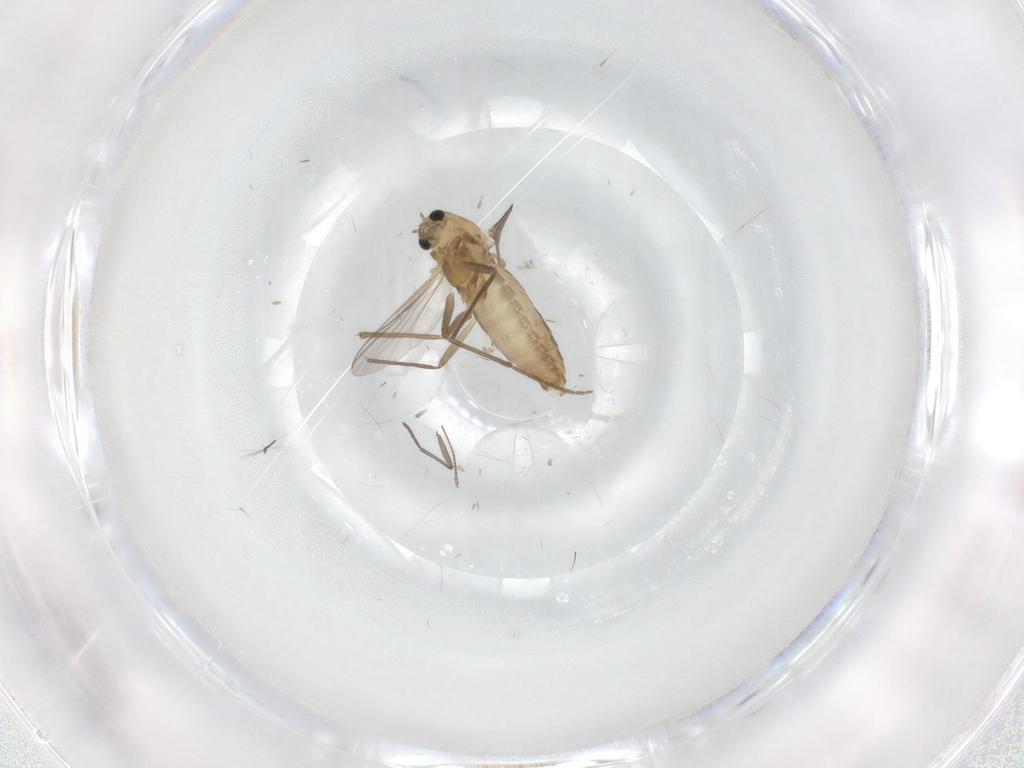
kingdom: Animalia
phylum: Arthropoda
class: Insecta
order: Diptera
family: Chironomidae
